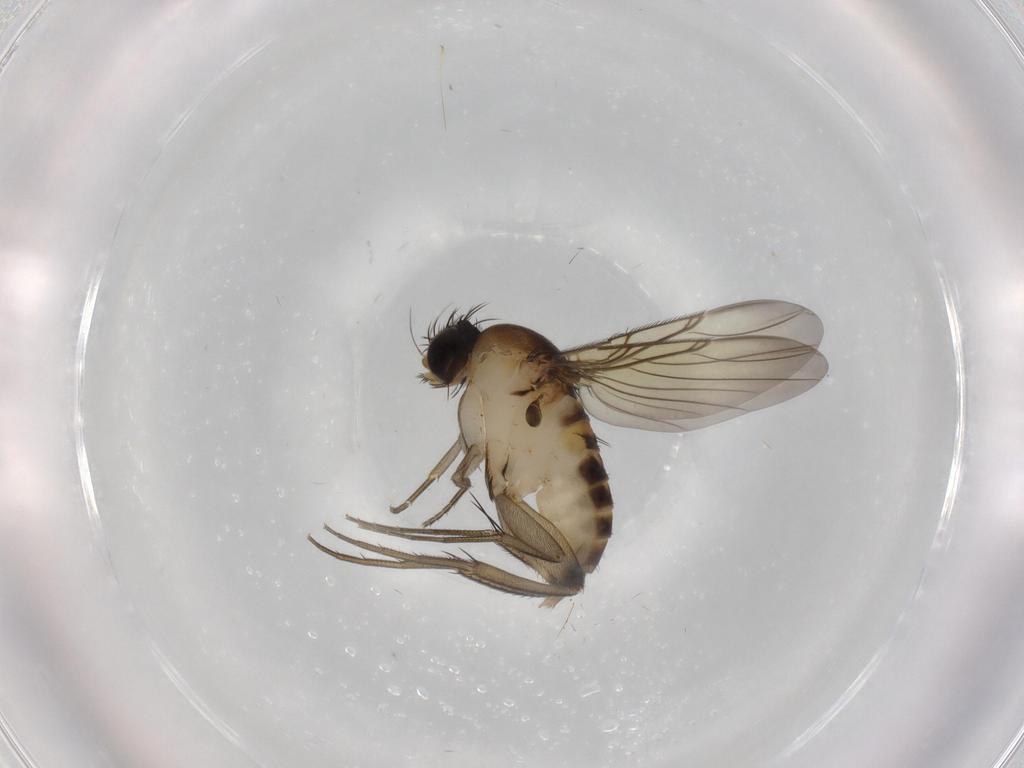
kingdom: Animalia
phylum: Arthropoda
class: Insecta
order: Diptera
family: Phoridae
